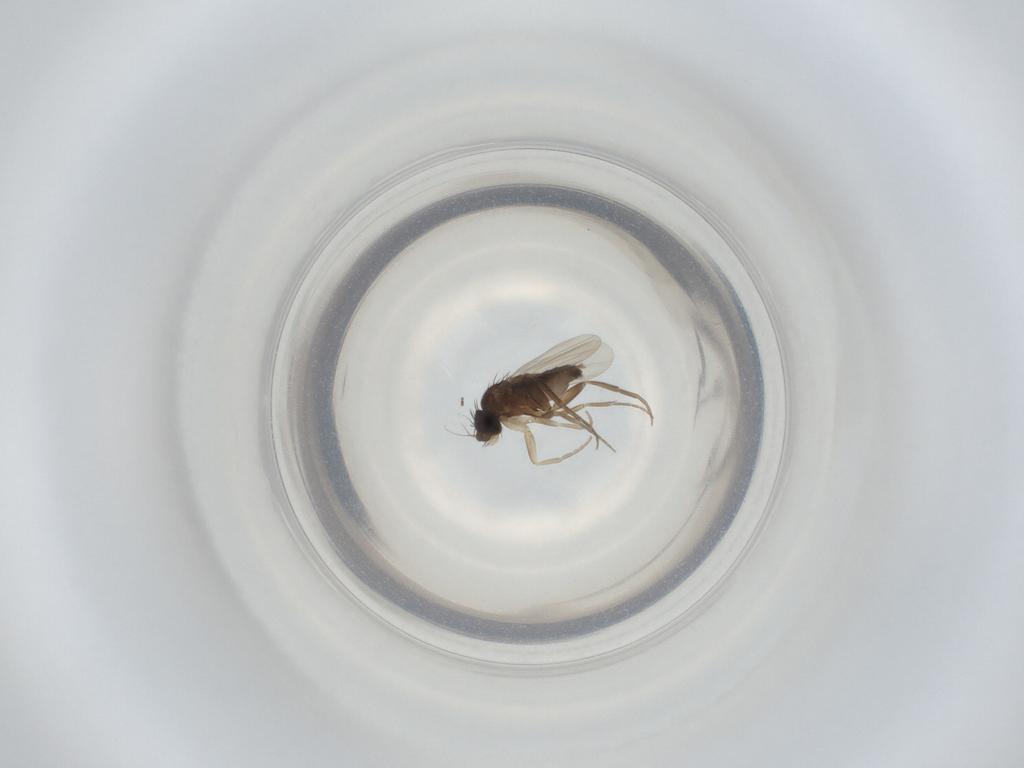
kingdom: Animalia
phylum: Arthropoda
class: Insecta
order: Diptera
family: Phoridae
